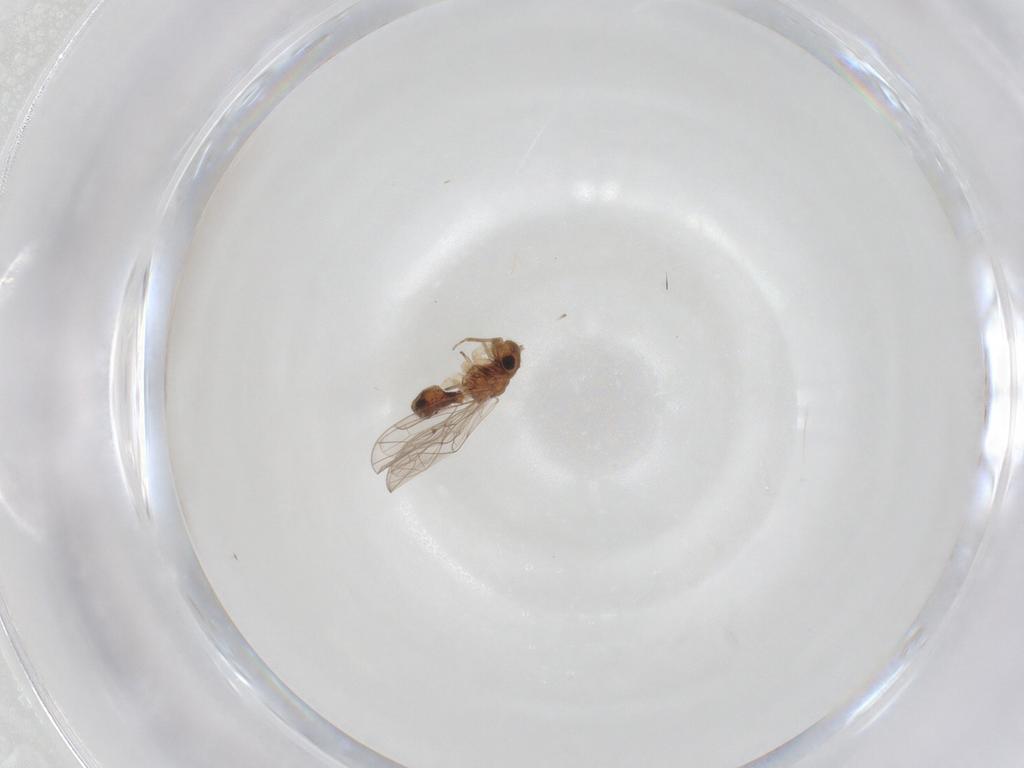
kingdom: Animalia
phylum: Arthropoda
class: Insecta
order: Psocodea
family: Ectopsocidae
